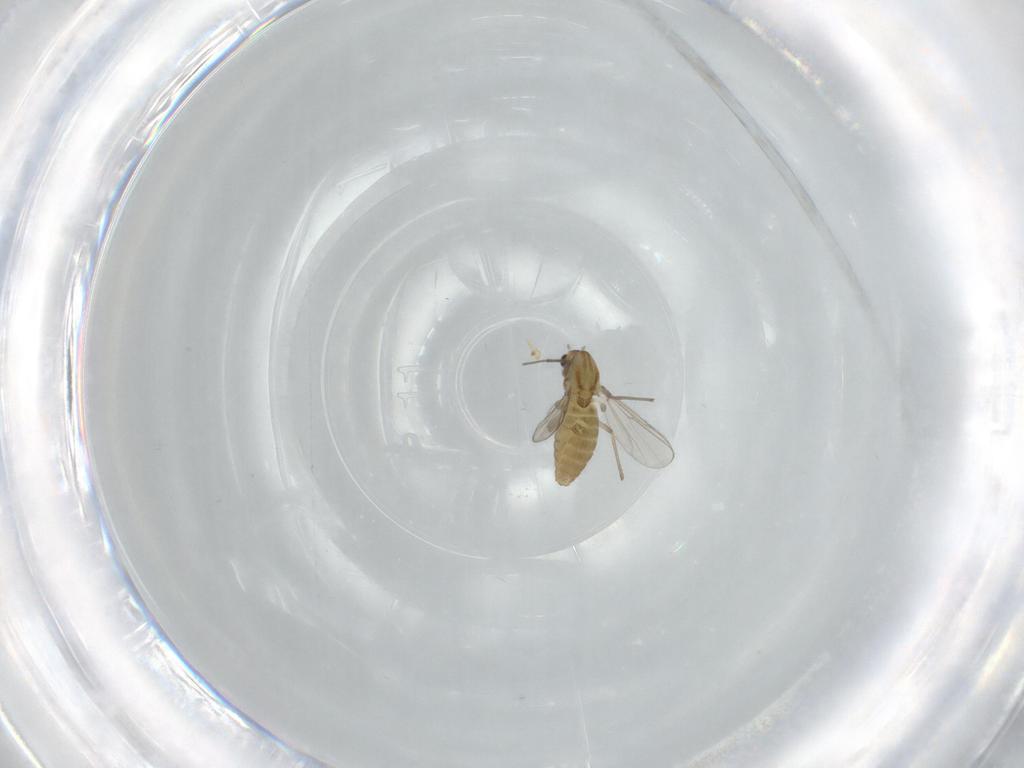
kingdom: Animalia
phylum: Arthropoda
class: Insecta
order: Diptera
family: Chironomidae
